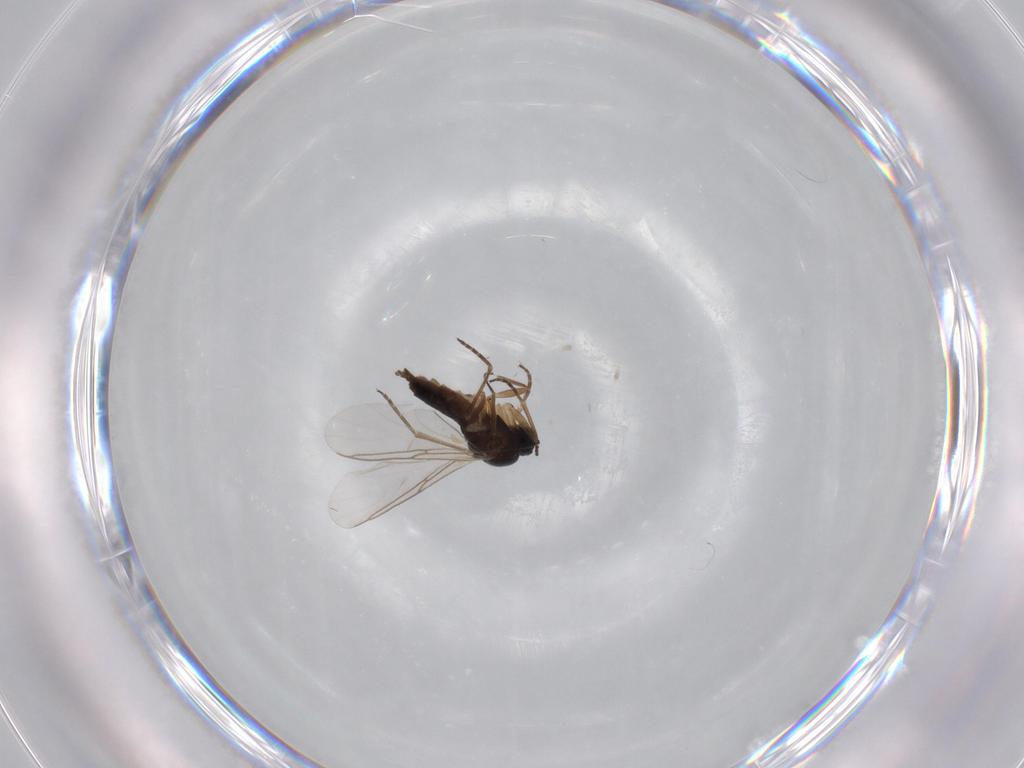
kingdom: Animalia
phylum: Arthropoda
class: Insecta
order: Diptera
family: Sciaridae
